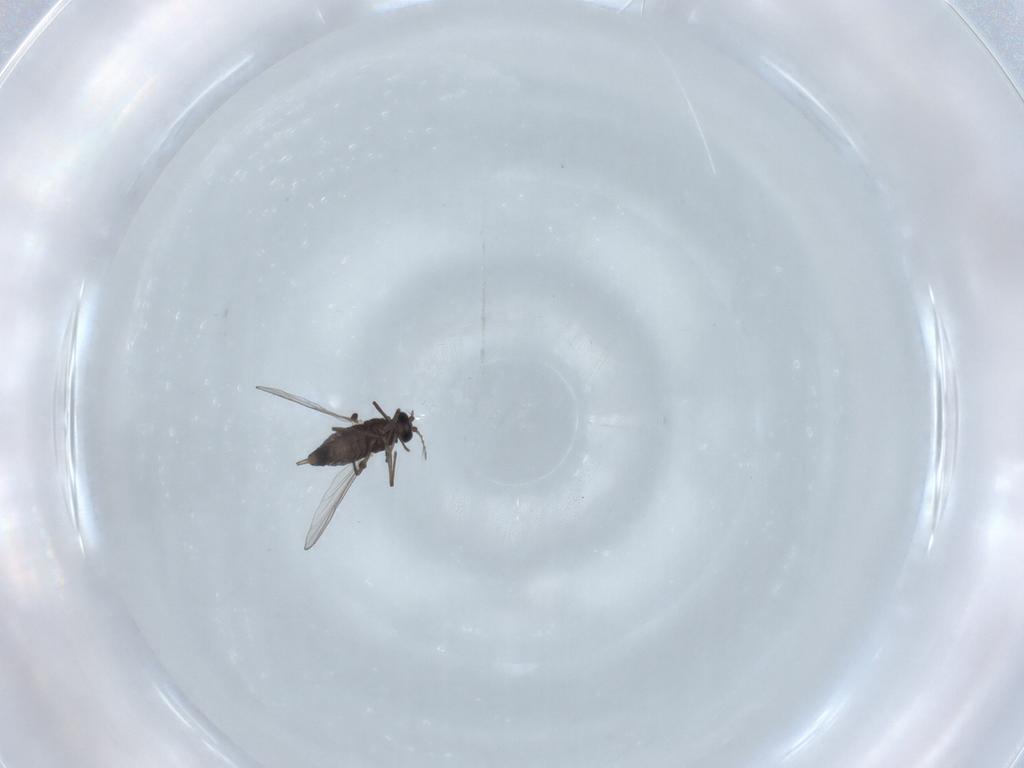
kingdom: Animalia
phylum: Arthropoda
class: Insecta
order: Diptera
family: Chironomidae
